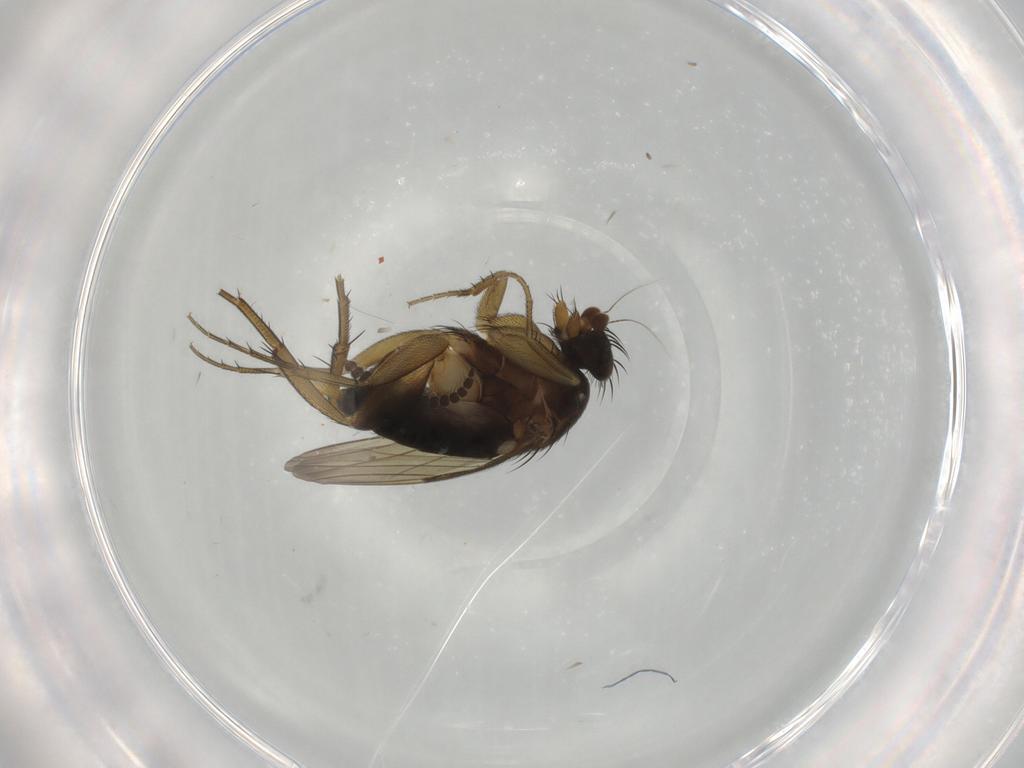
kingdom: Animalia
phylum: Arthropoda
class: Insecta
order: Diptera
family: Phoridae
